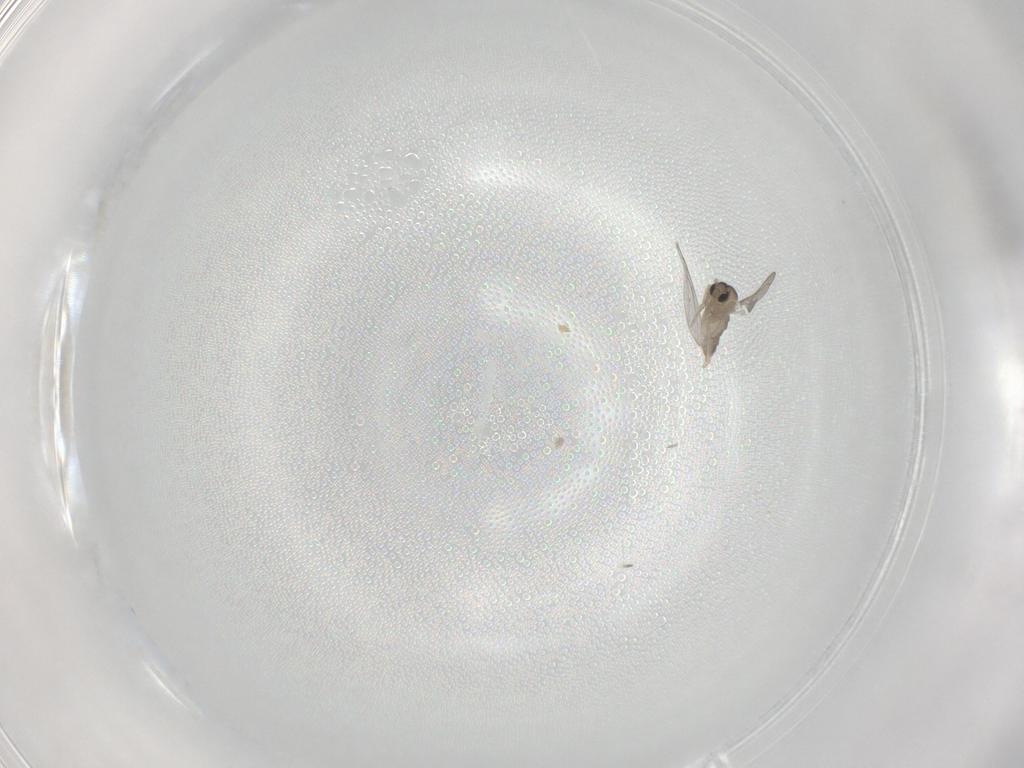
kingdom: Animalia
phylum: Arthropoda
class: Insecta
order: Diptera
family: Cecidomyiidae
